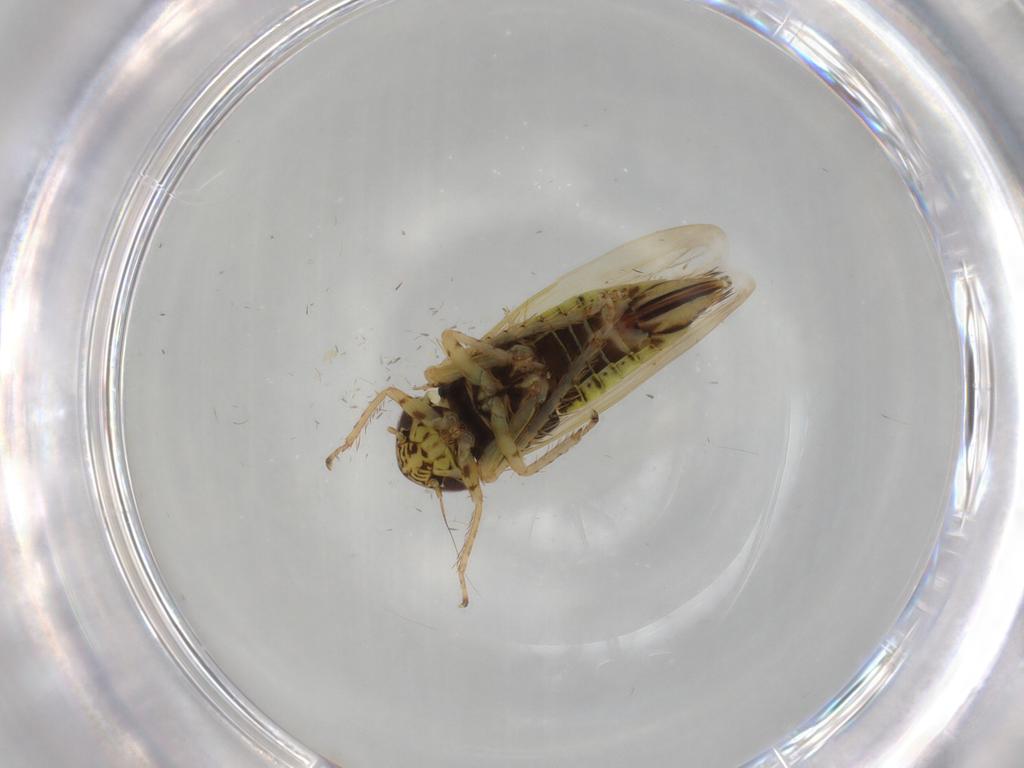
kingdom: Animalia
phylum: Arthropoda
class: Insecta
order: Hemiptera
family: Cicadellidae
